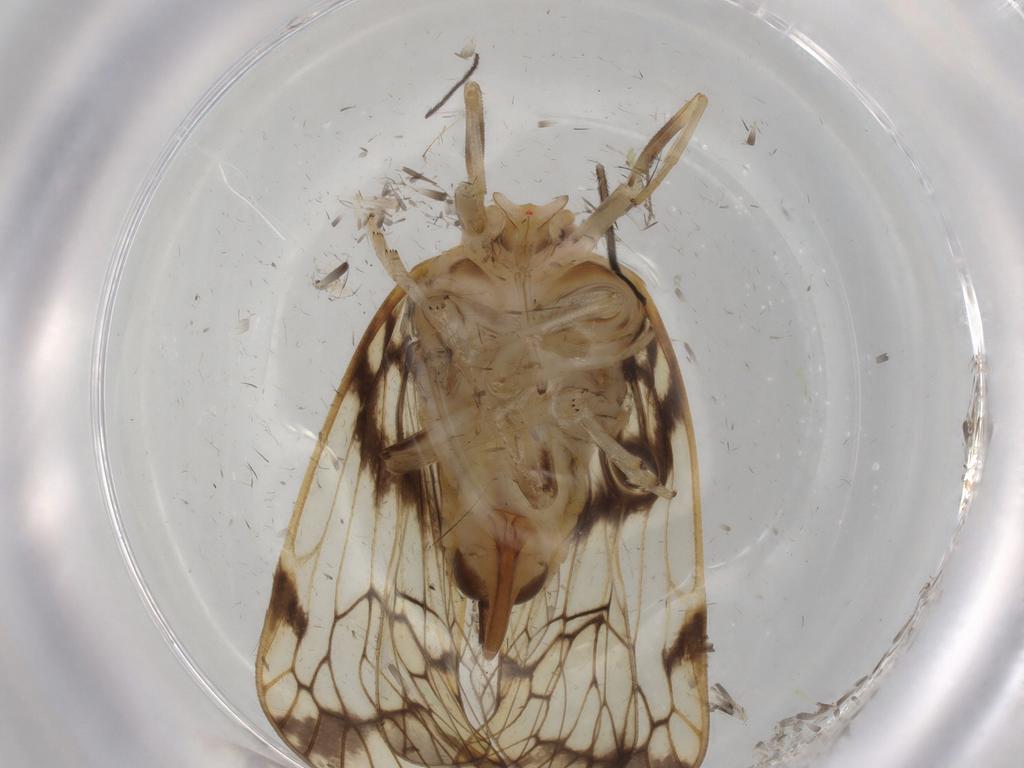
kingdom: Animalia
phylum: Arthropoda
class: Insecta
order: Hemiptera
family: Cixiidae
